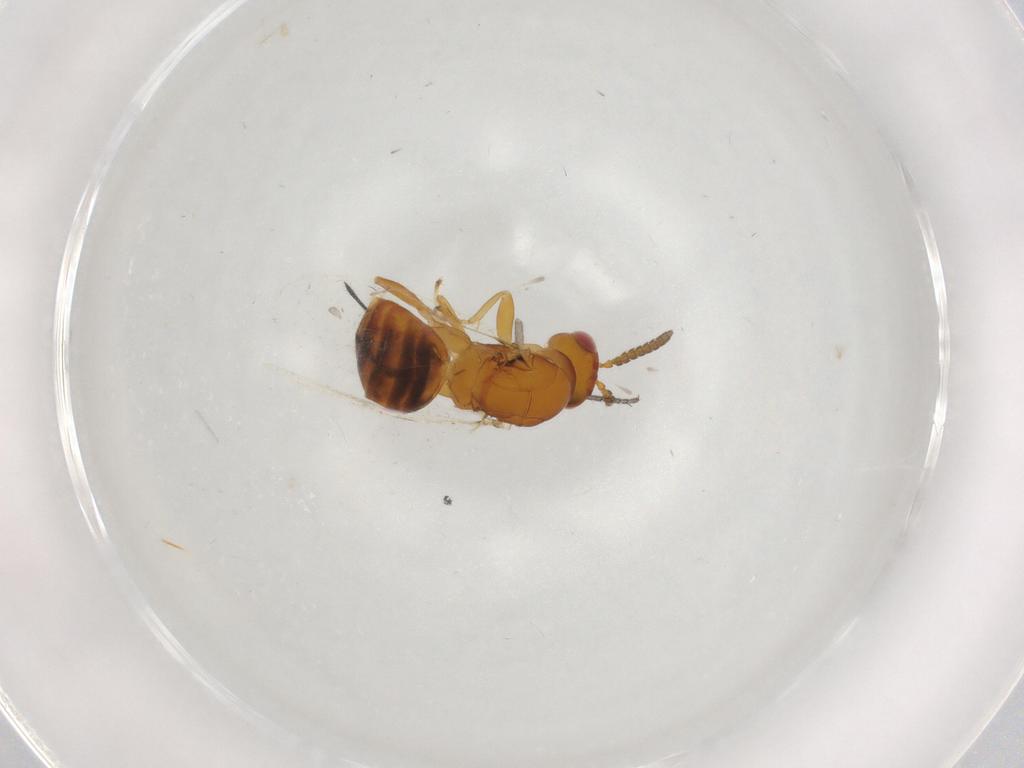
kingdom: Animalia
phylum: Arthropoda
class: Insecta
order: Hymenoptera
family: Pteromalidae
